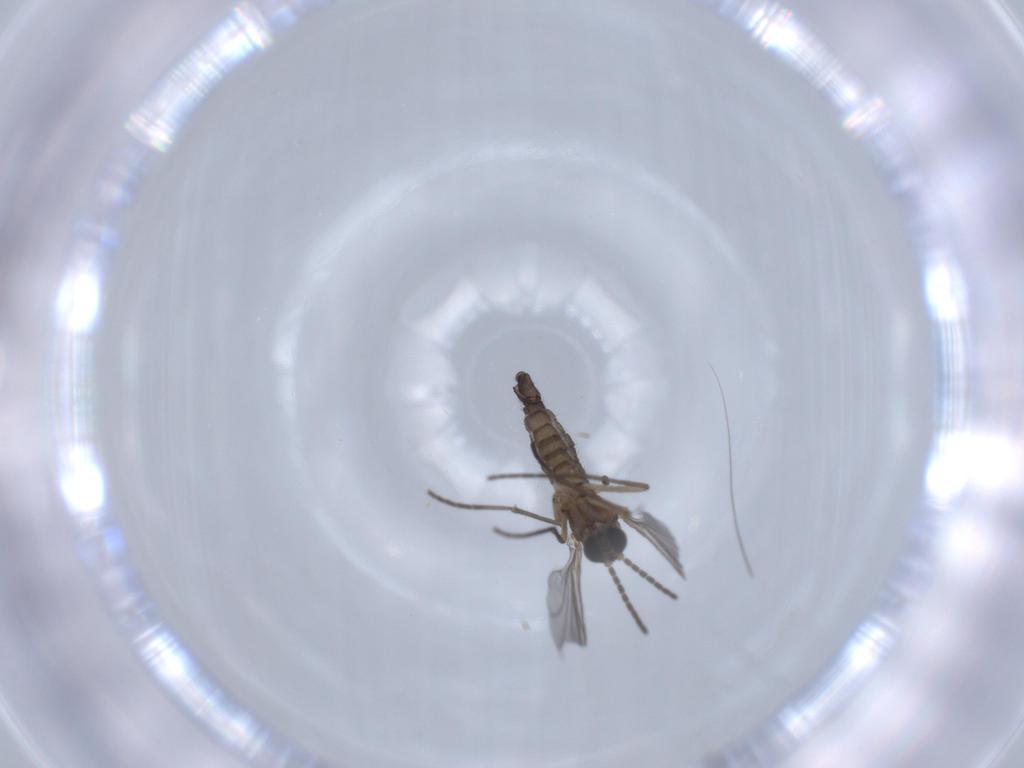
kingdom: Animalia
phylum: Arthropoda
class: Insecta
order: Diptera
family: Sciaridae
